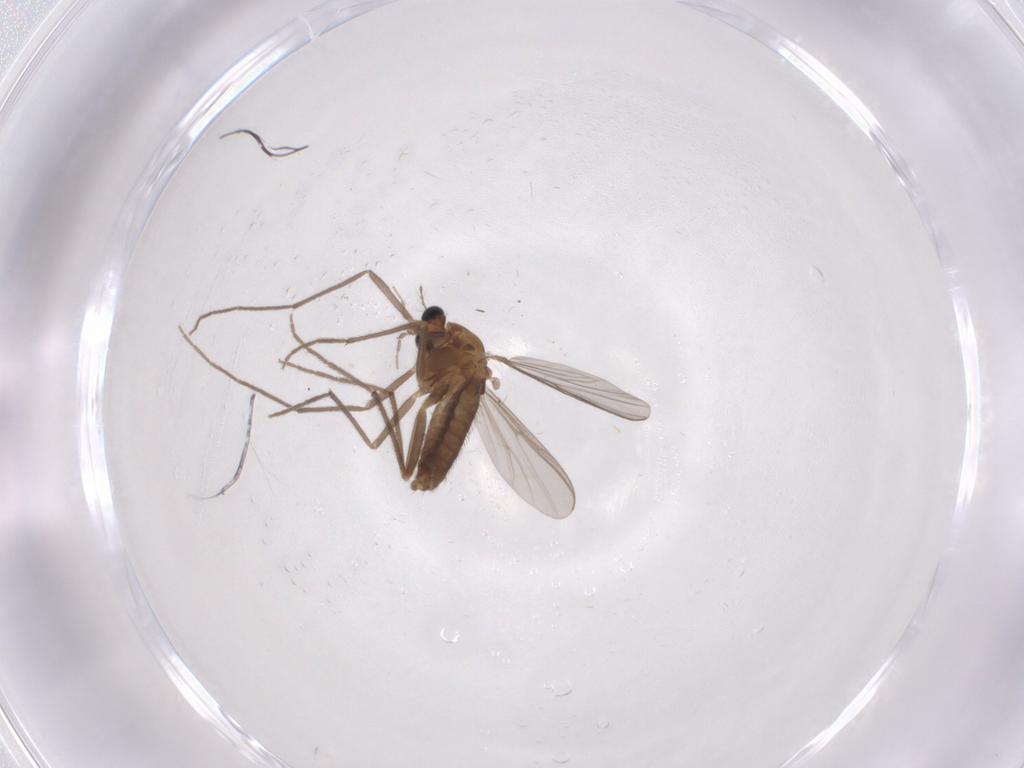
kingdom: Animalia
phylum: Arthropoda
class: Insecta
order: Diptera
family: Chironomidae
